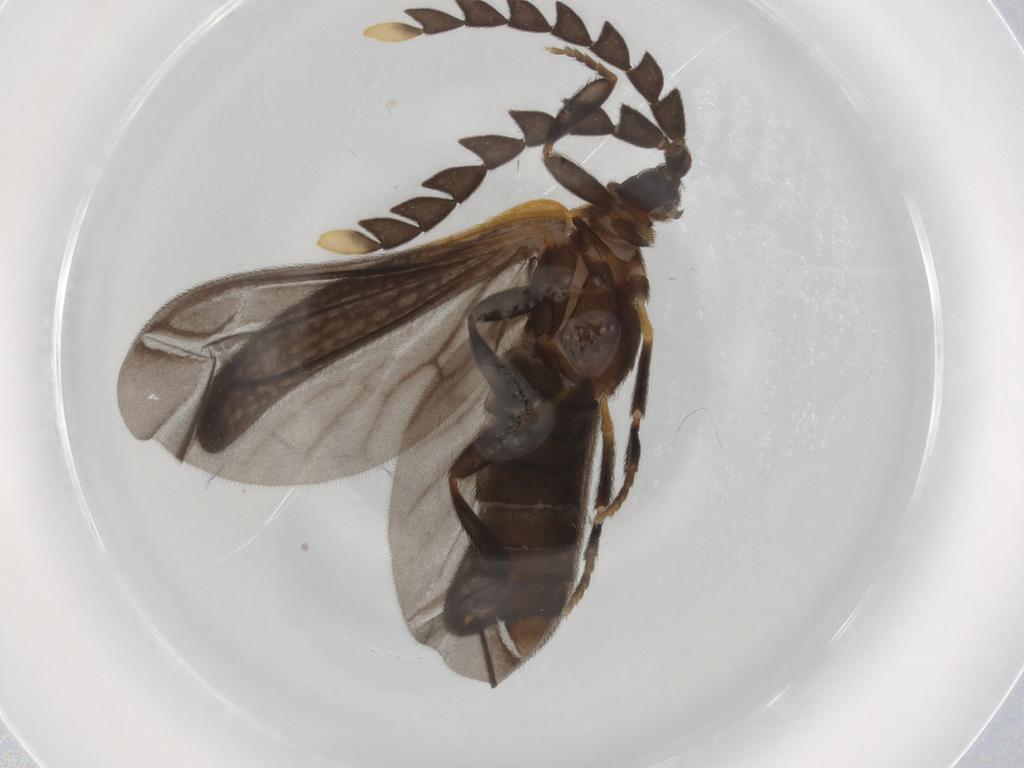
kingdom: Animalia
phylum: Arthropoda
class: Insecta
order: Coleoptera
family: Lycidae
